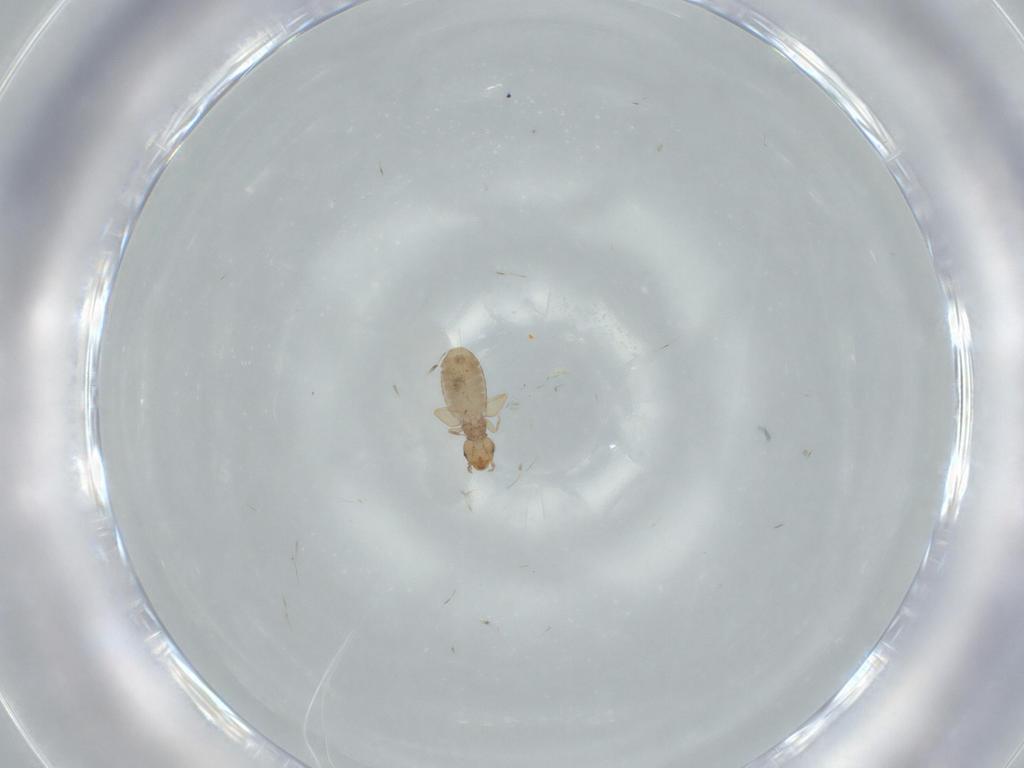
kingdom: Animalia
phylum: Arthropoda
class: Insecta
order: Psocodea
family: Liposcelididae
